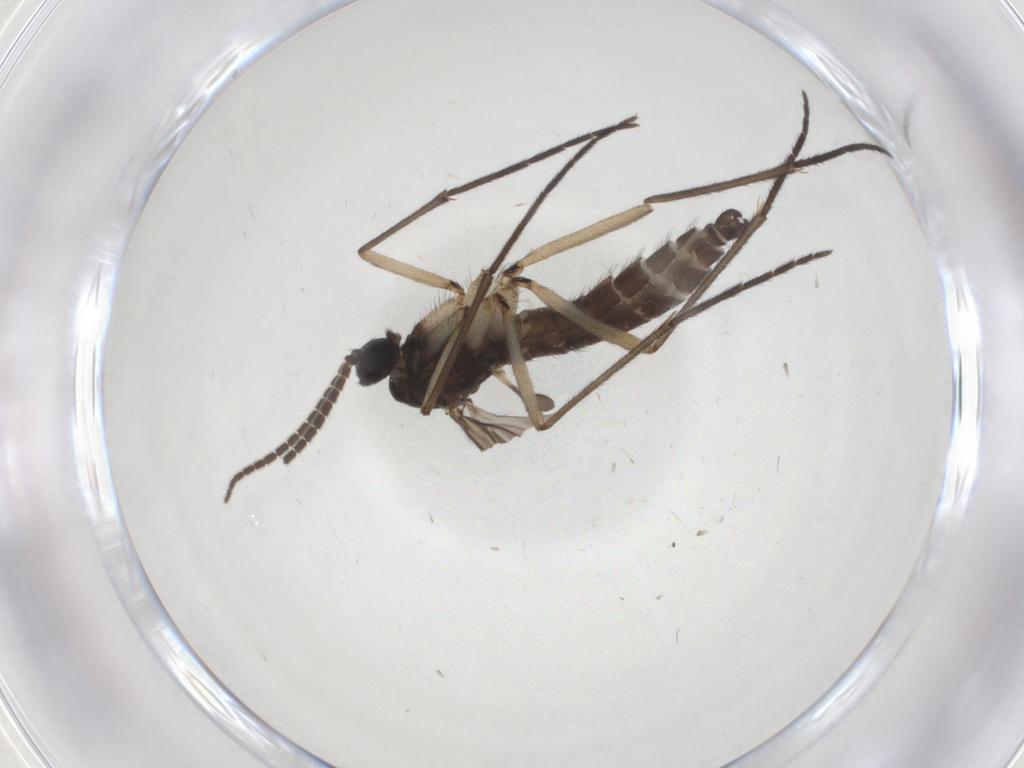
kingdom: Animalia
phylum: Arthropoda
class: Insecta
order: Diptera
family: Sciaridae
